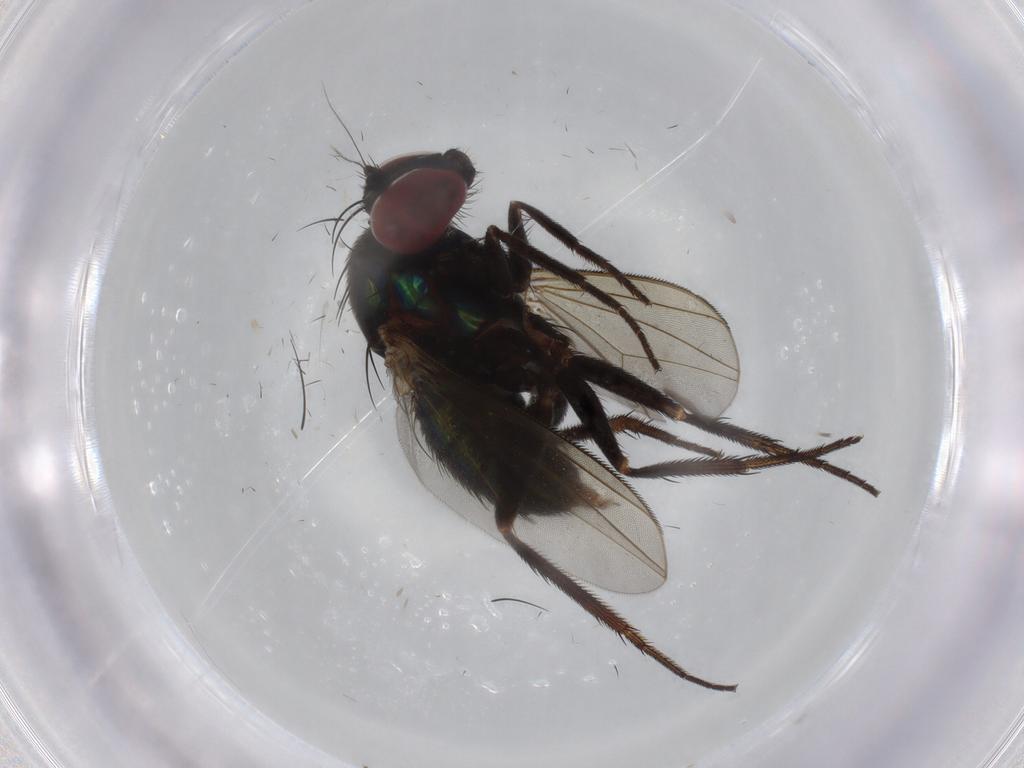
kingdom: Animalia
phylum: Arthropoda
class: Insecta
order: Diptera
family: Dolichopodidae
